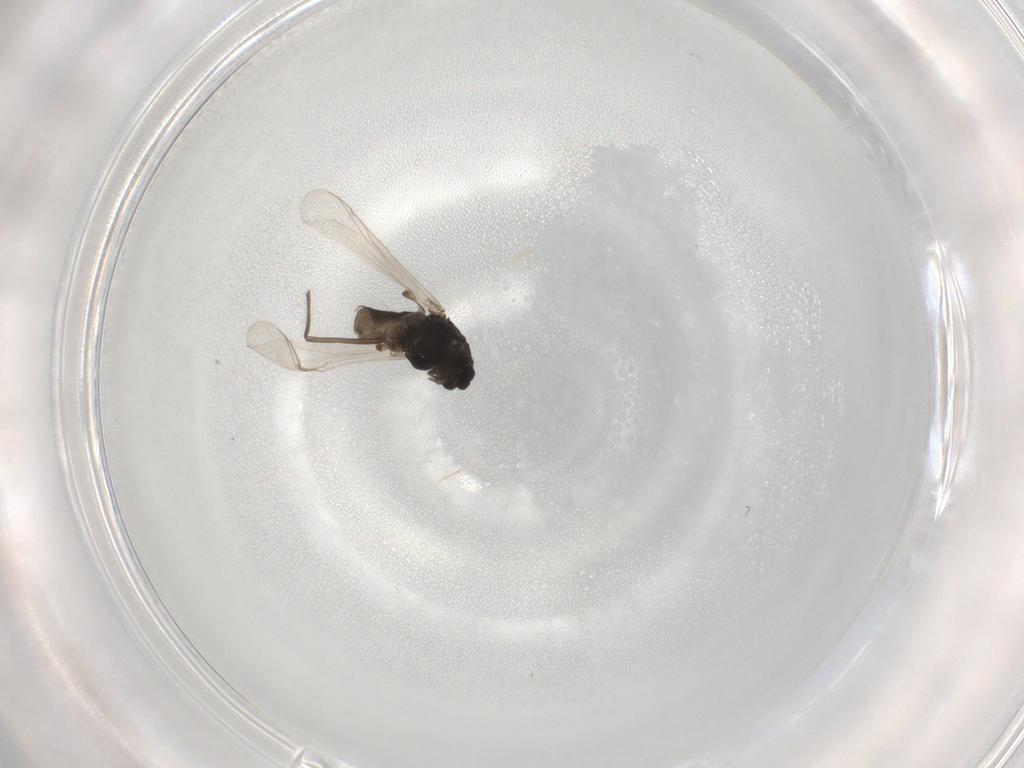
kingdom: Animalia
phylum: Arthropoda
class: Insecta
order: Diptera
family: Chironomidae
